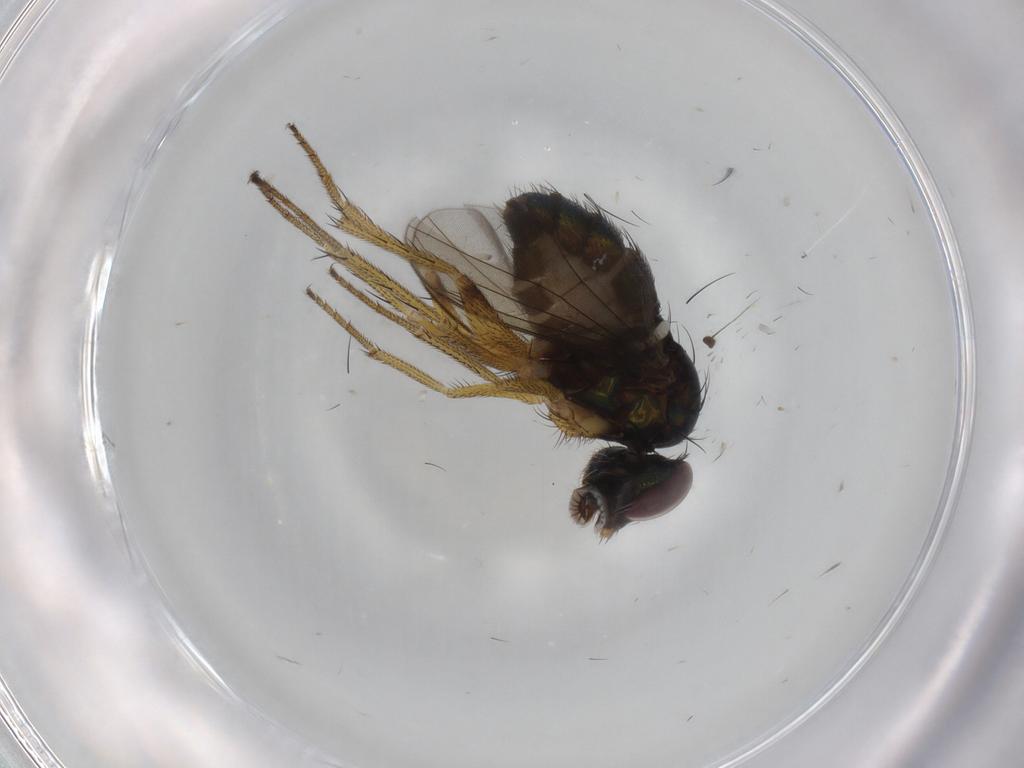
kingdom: Animalia
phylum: Arthropoda
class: Insecta
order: Diptera
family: Dolichopodidae
